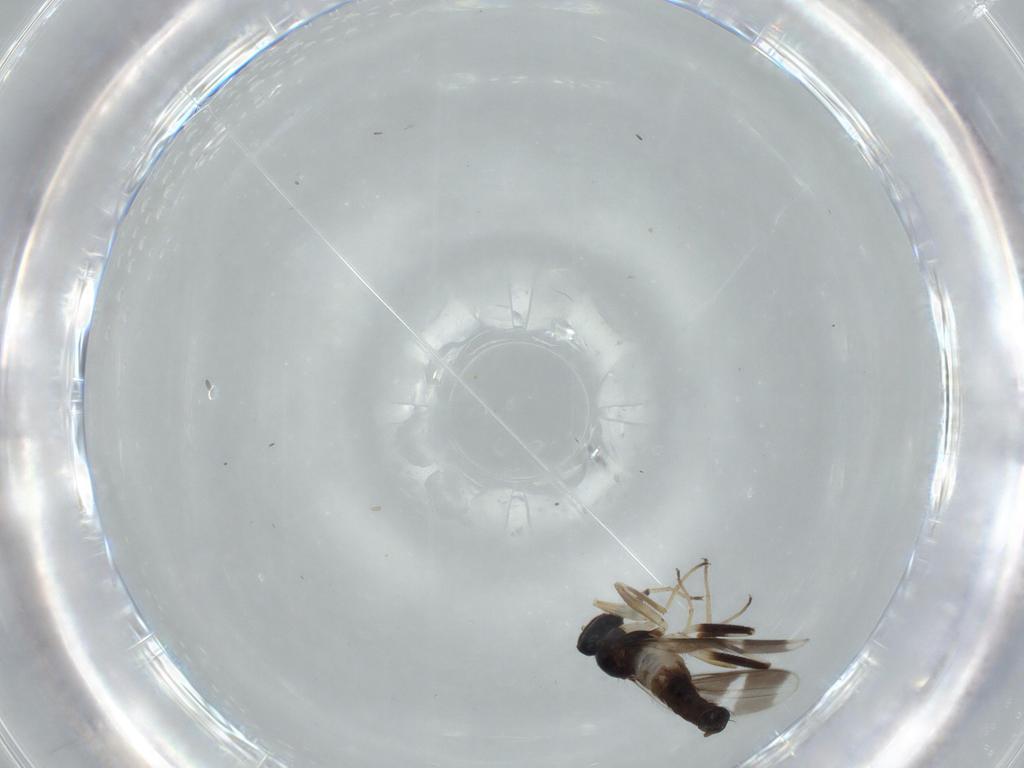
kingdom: Animalia
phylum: Arthropoda
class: Insecta
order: Diptera
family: Hybotidae
